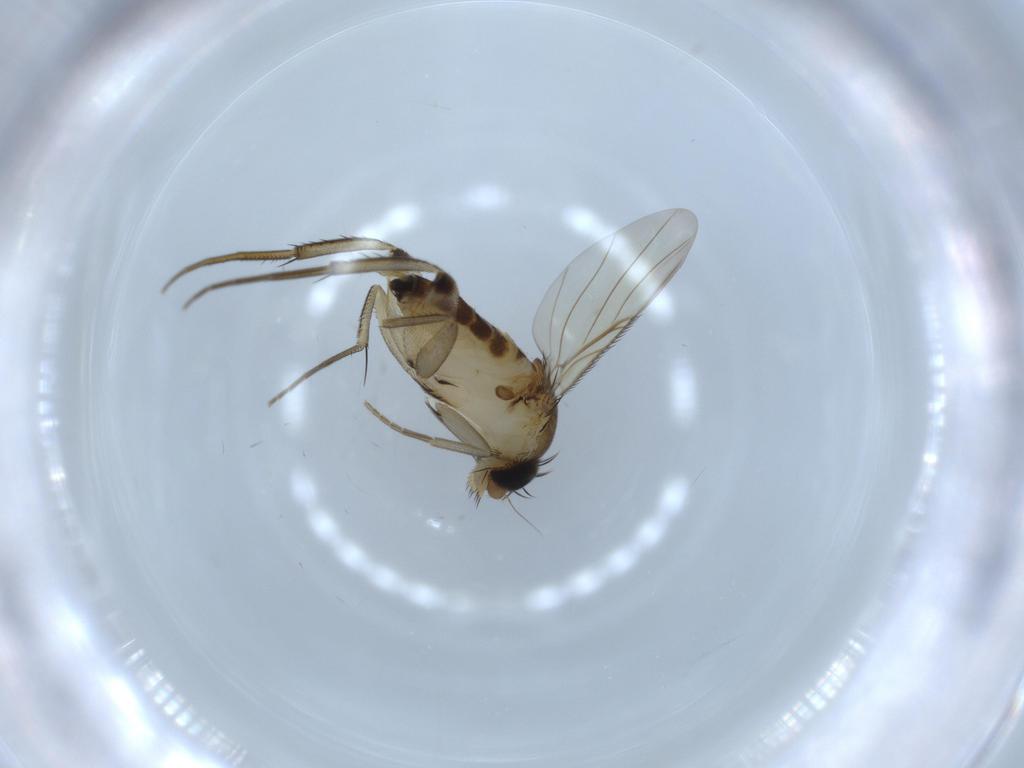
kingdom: Animalia
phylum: Arthropoda
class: Insecta
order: Diptera
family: Phoridae
